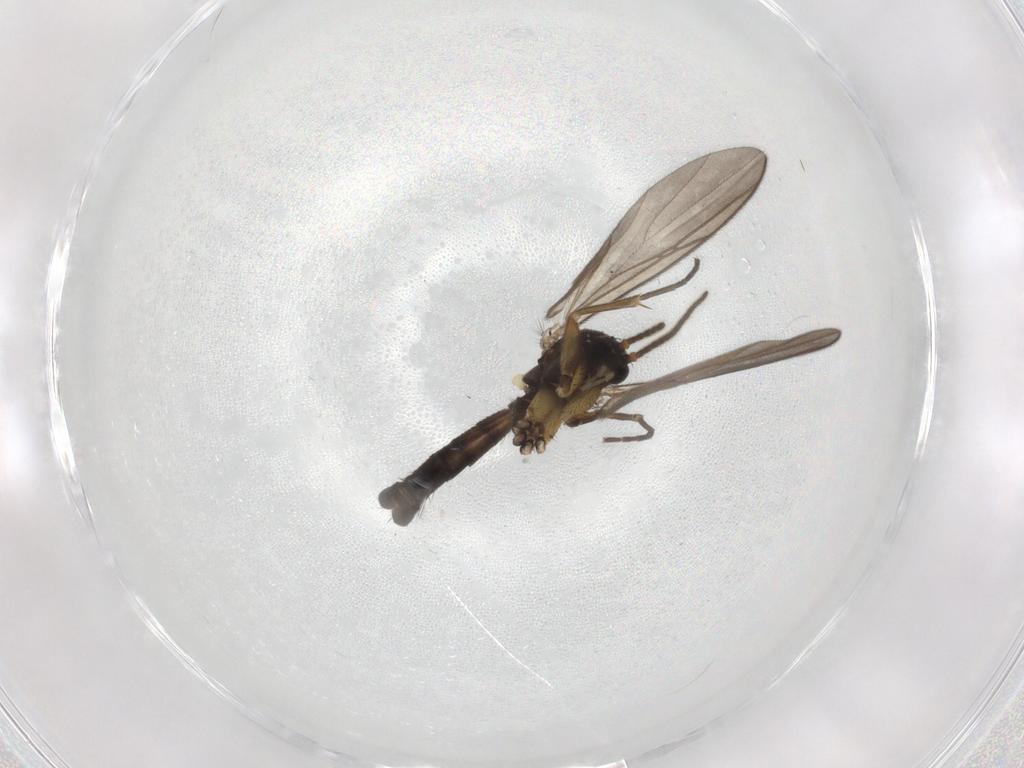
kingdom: Animalia
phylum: Arthropoda
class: Insecta
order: Diptera
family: Mycetophilidae
